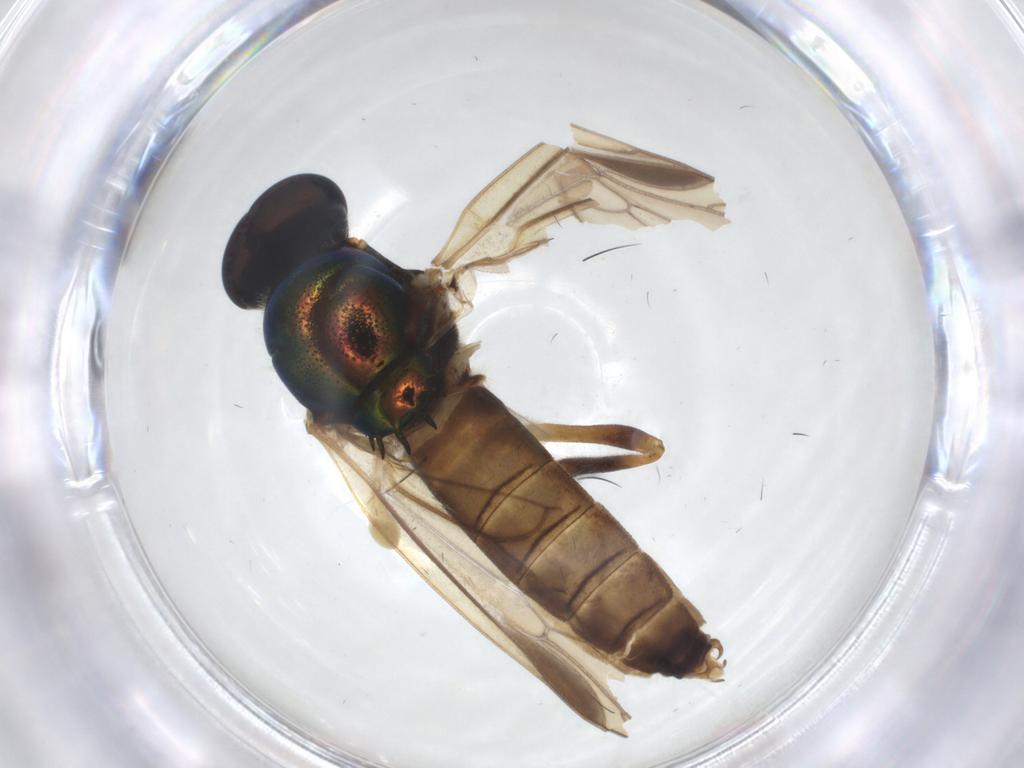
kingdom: Animalia
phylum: Arthropoda
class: Insecta
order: Diptera
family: Stratiomyidae
